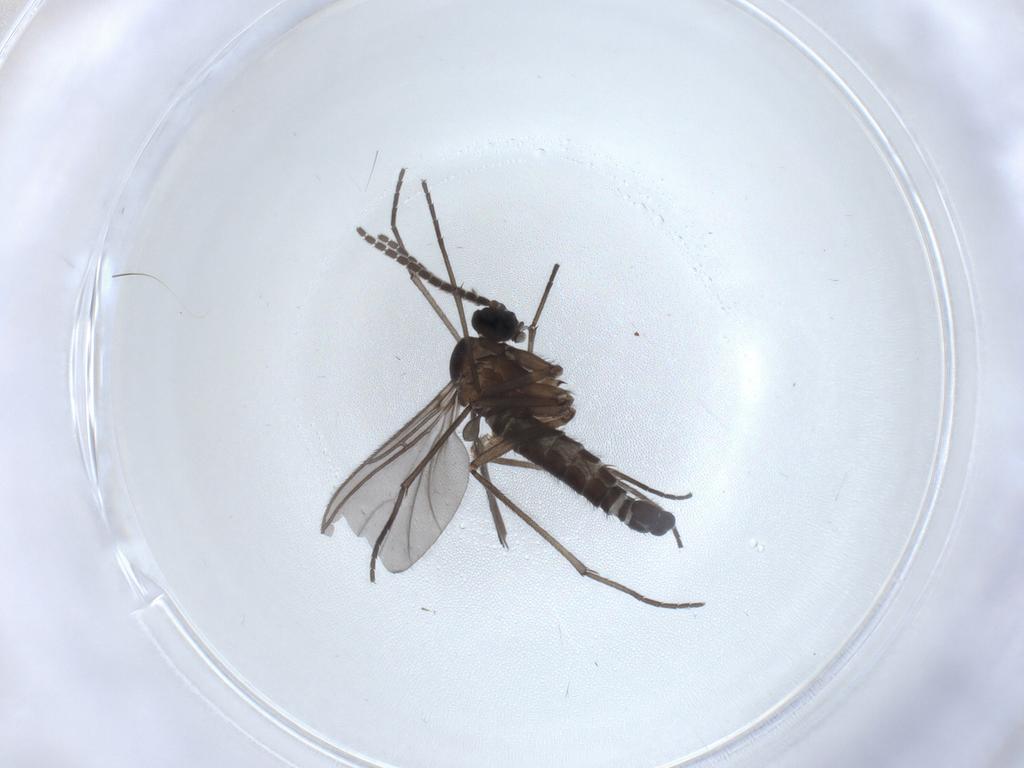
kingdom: Animalia
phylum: Arthropoda
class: Insecta
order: Diptera
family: Sciaridae
